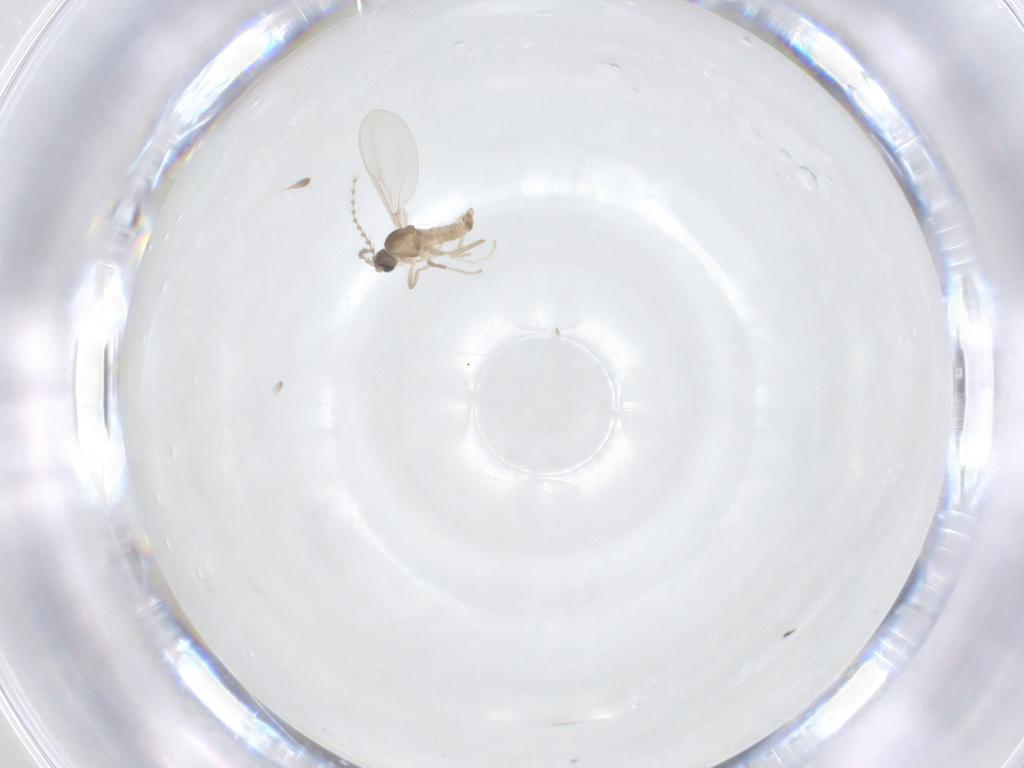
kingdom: Animalia
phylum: Arthropoda
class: Insecta
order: Diptera
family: Cecidomyiidae
